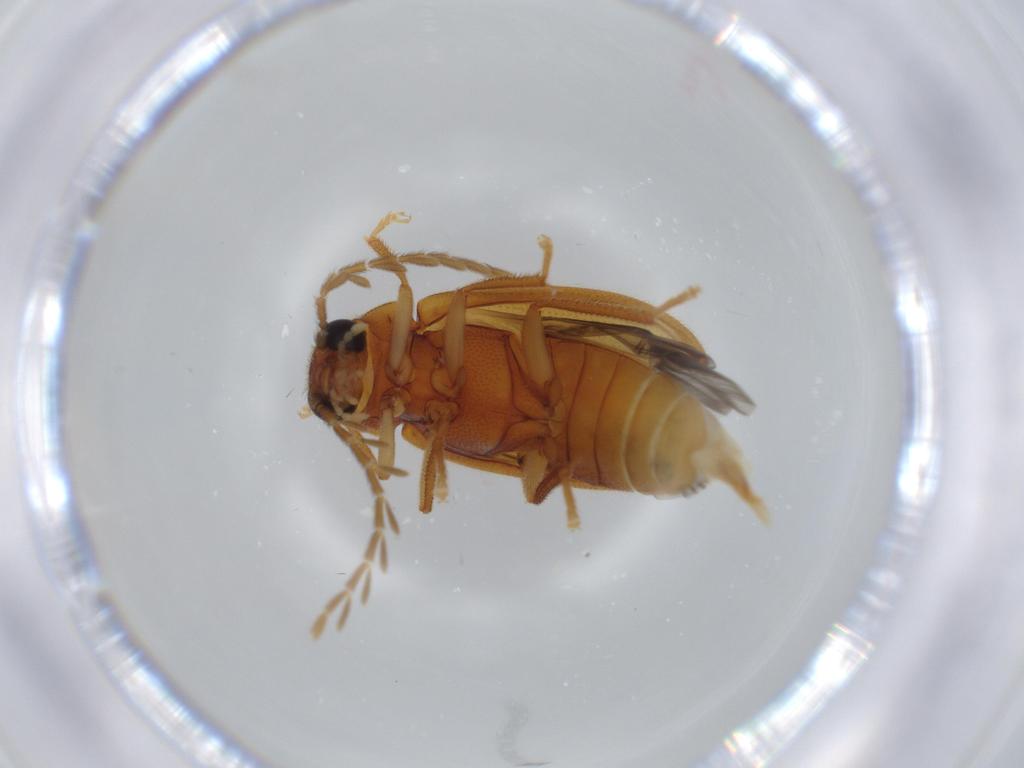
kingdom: Animalia
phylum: Arthropoda
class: Insecta
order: Coleoptera
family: Ptilodactylidae
